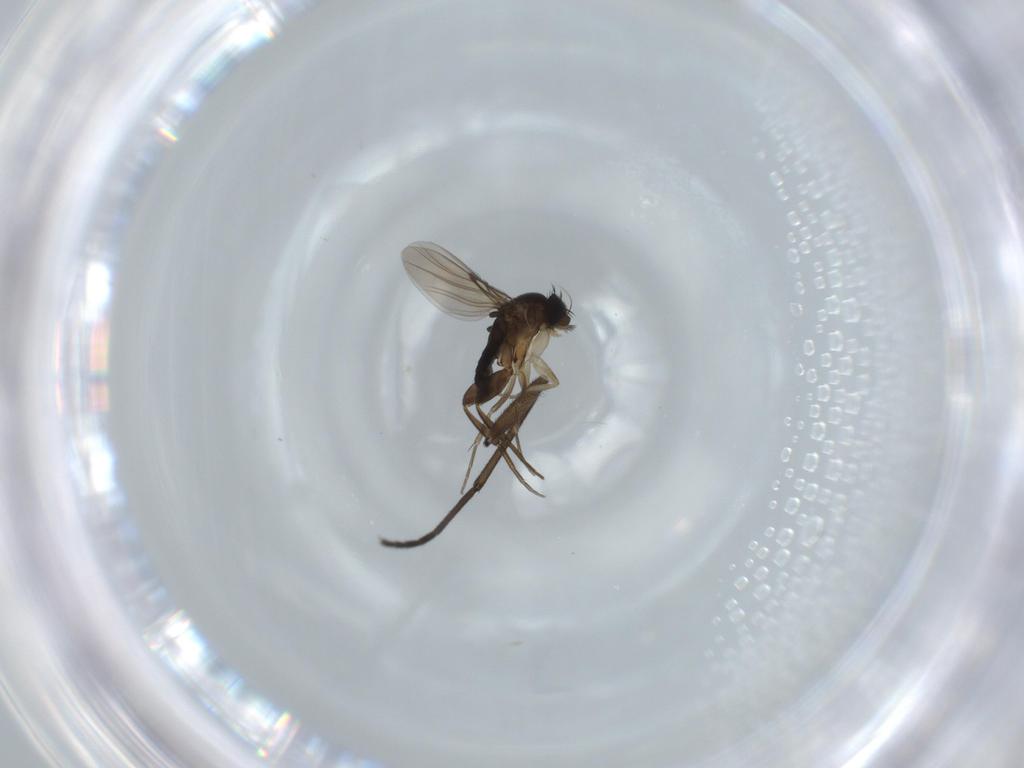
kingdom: Animalia
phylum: Arthropoda
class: Insecta
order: Diptera
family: Phoridae
